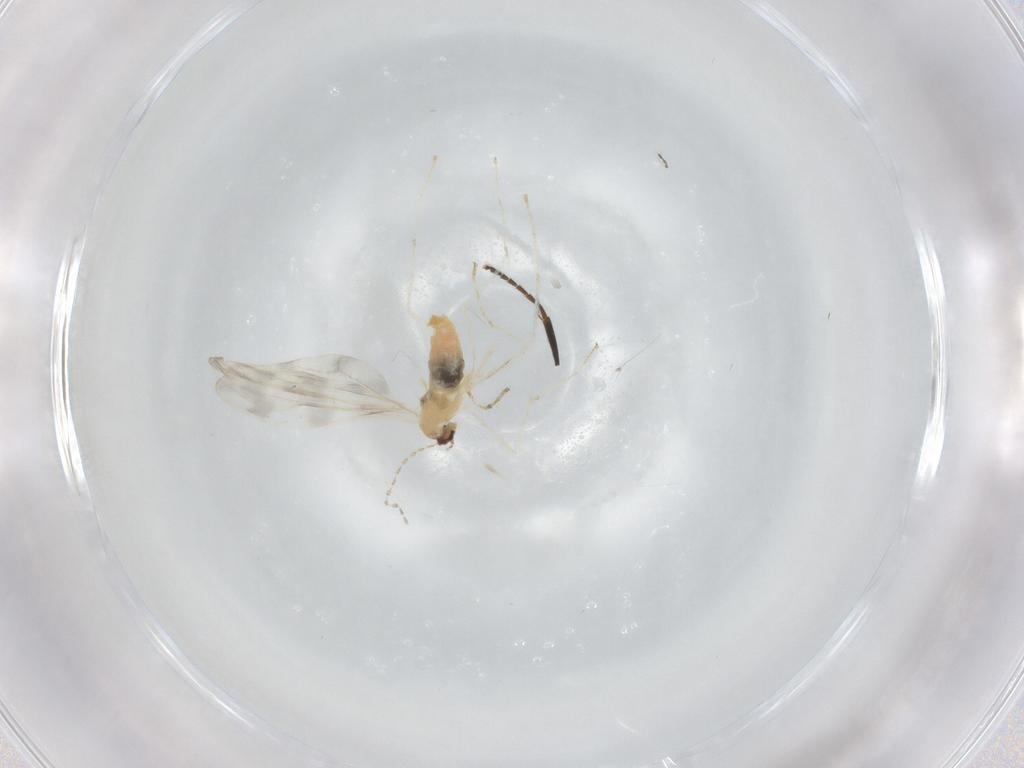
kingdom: Animalia
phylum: Arthropoda
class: Insecta
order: Diptera
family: Cecidomyiidae
